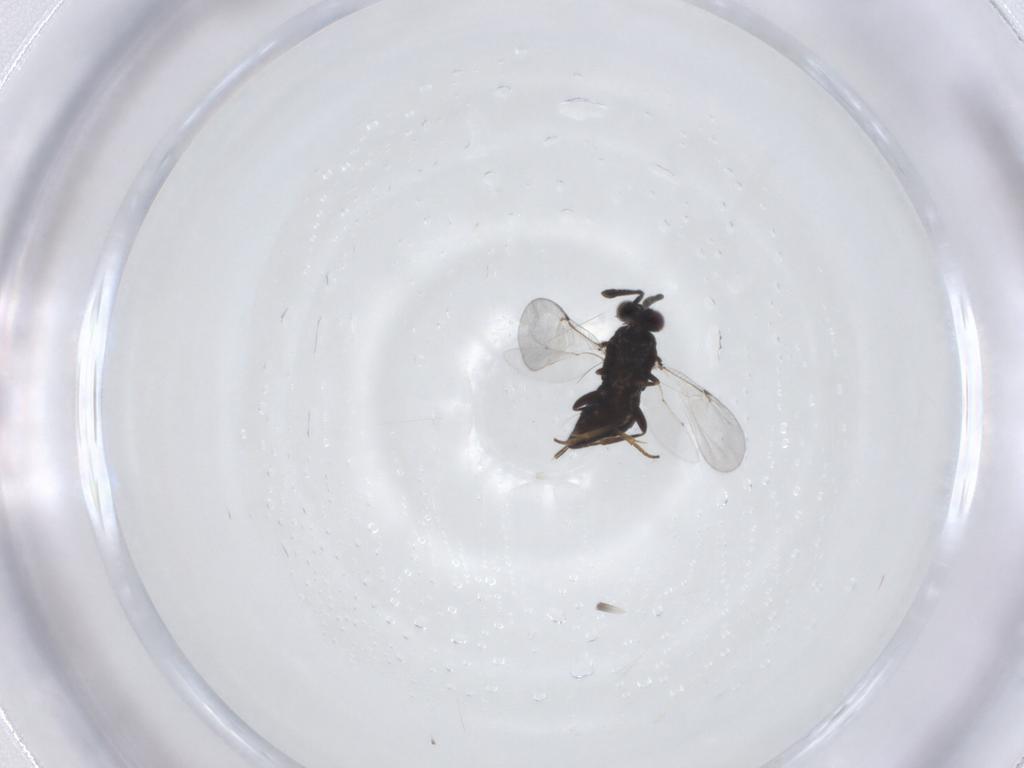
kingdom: Animalia
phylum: Arthropoda
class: Insecta
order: Hymenoptera
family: Encyrtidae
